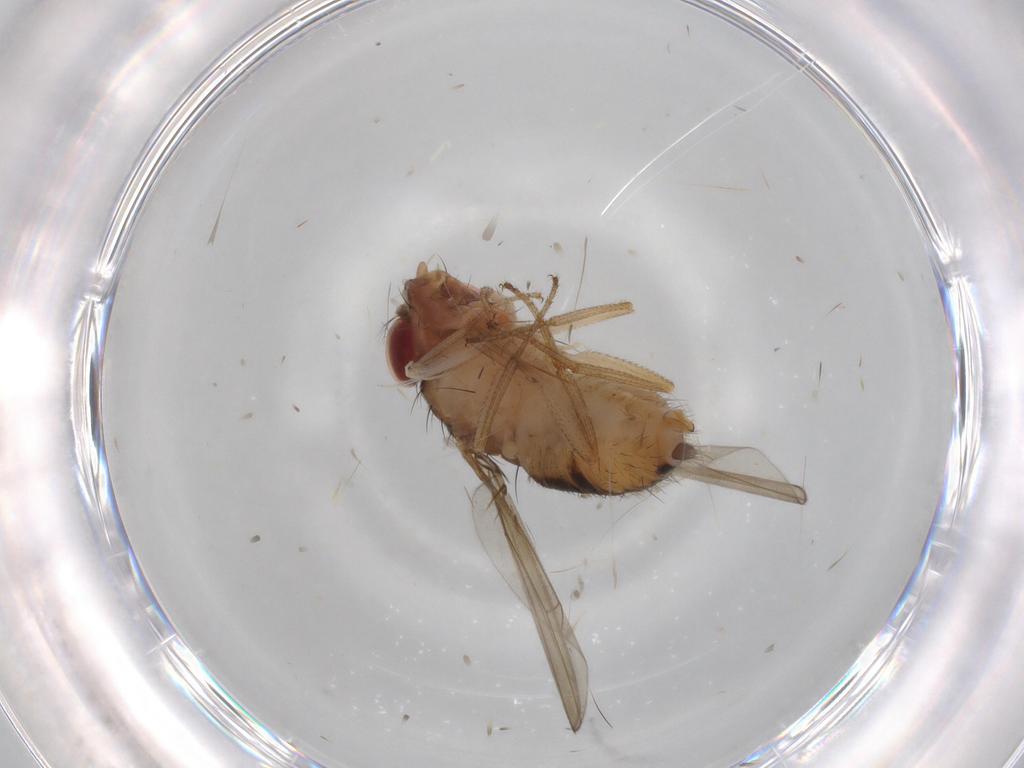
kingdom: Animalia
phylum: Arthropoda
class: Insecta
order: Diptera
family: Drosophilidae
